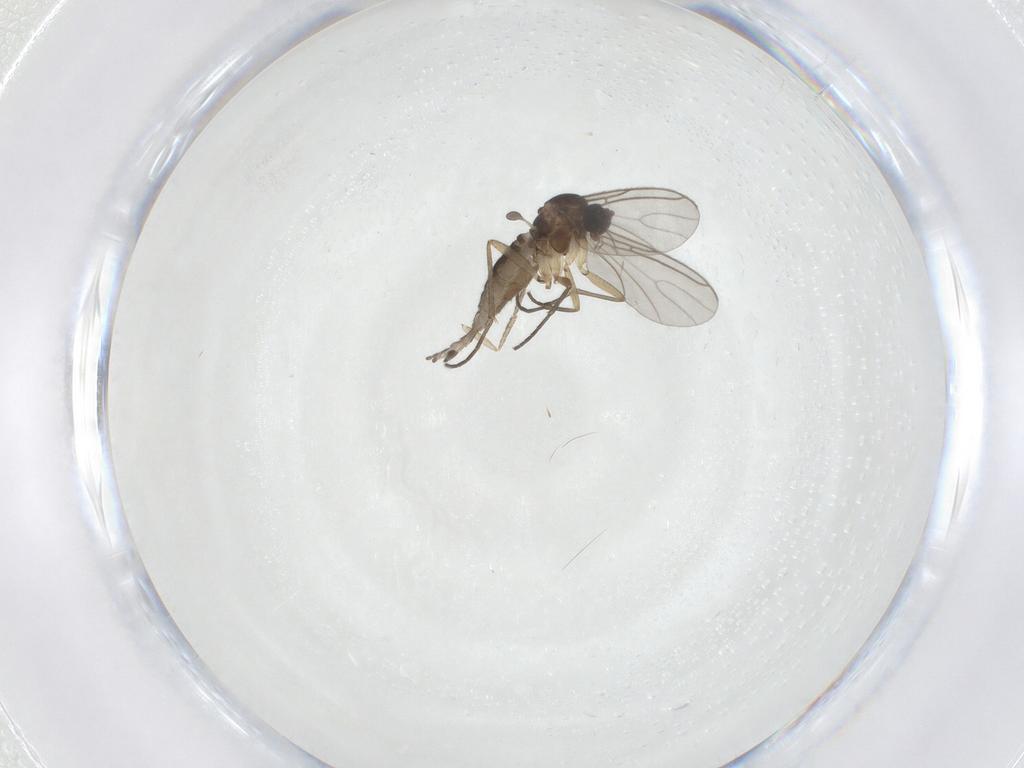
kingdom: Animalia
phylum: Arthropoda
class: Insecta
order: Diptera
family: Sciaridae
